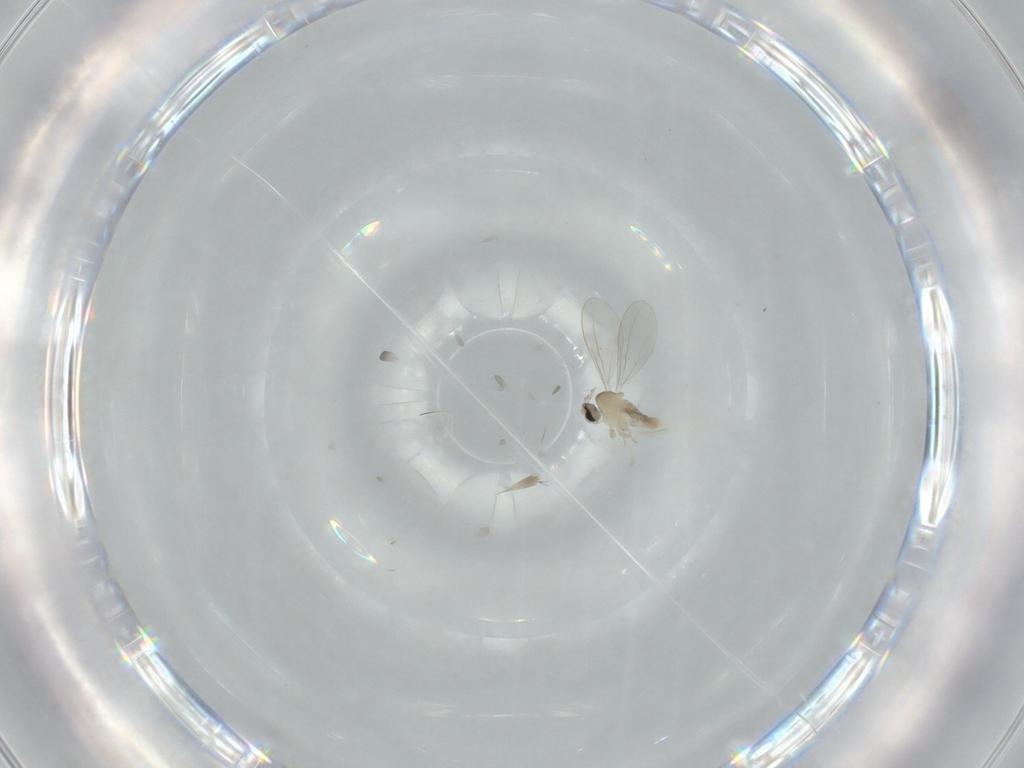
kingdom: Animalia
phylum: Arthropoda
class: Insecta
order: Diptera
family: Cecidomyiidae
